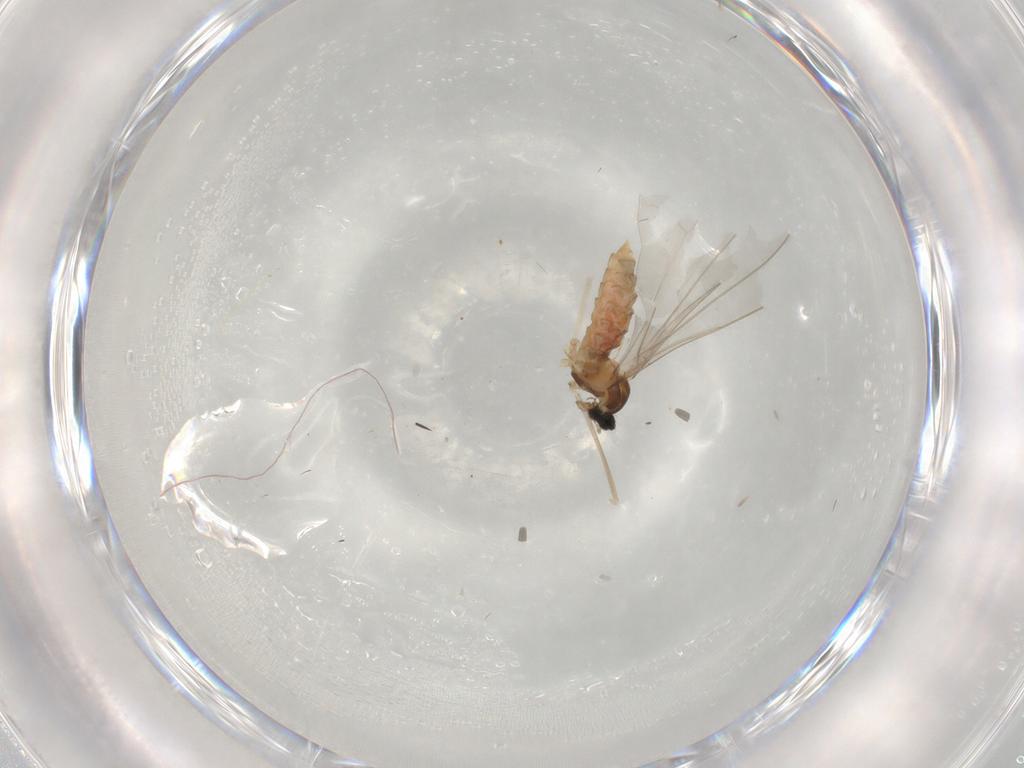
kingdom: Animalia
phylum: Arthropoda
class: Insecta
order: Diptera
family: Cecidomyiidae
